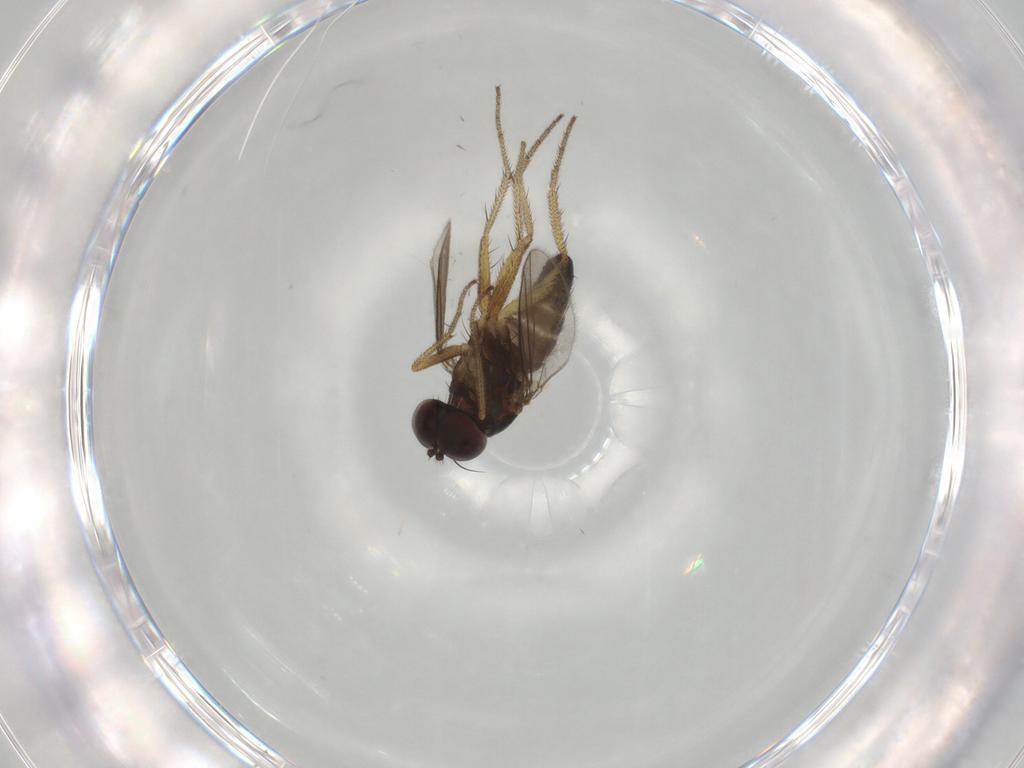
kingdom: Animalia
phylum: Arthropoda
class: Insecta
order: Diptera
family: Dolichopodidae
